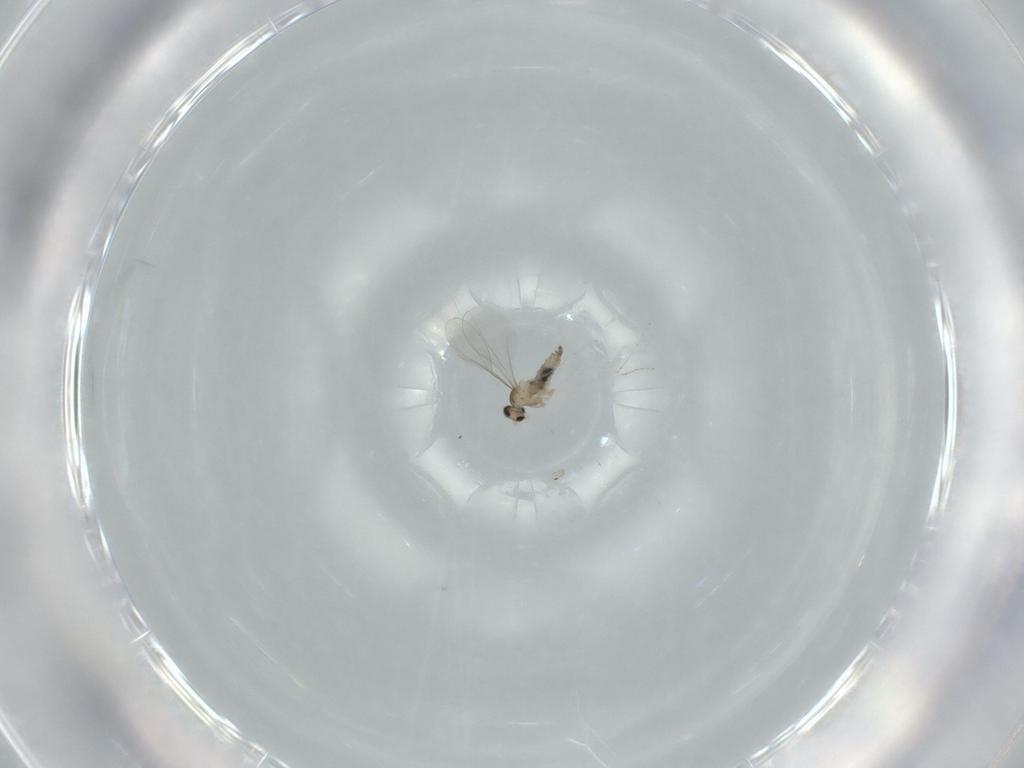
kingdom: Animalia
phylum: Arthropoda
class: Insecta
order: Diptera
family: Cecidomyiidae
